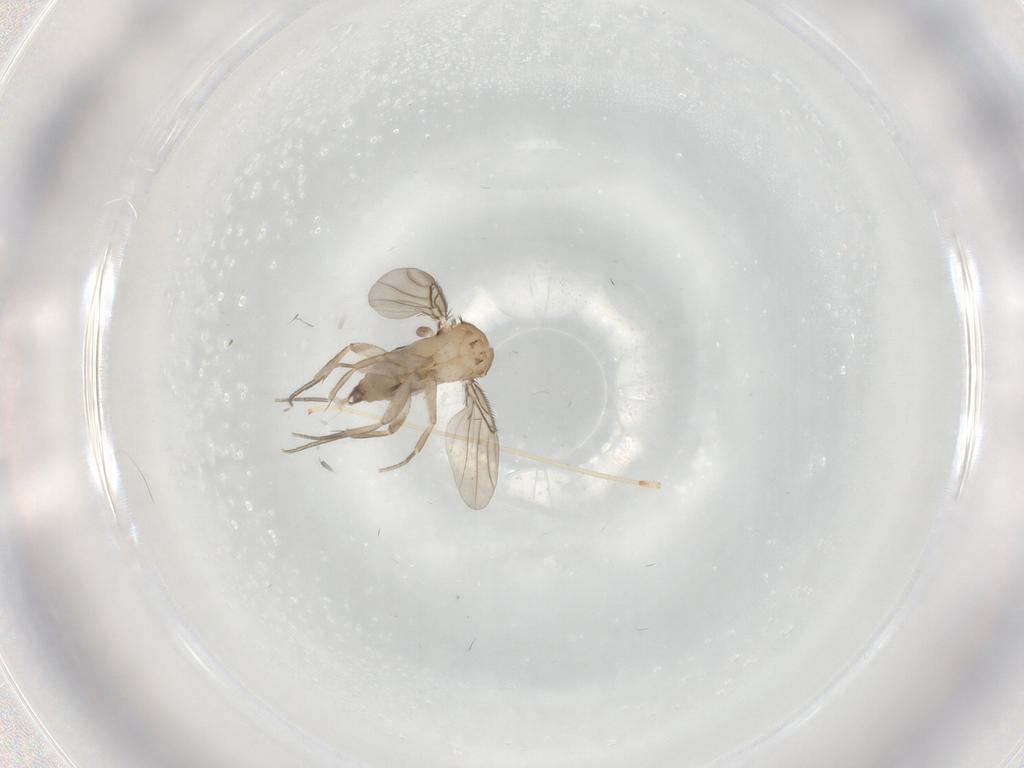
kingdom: Animalia
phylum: Arthropoda
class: Insecta
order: Diptera
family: Phoridae
